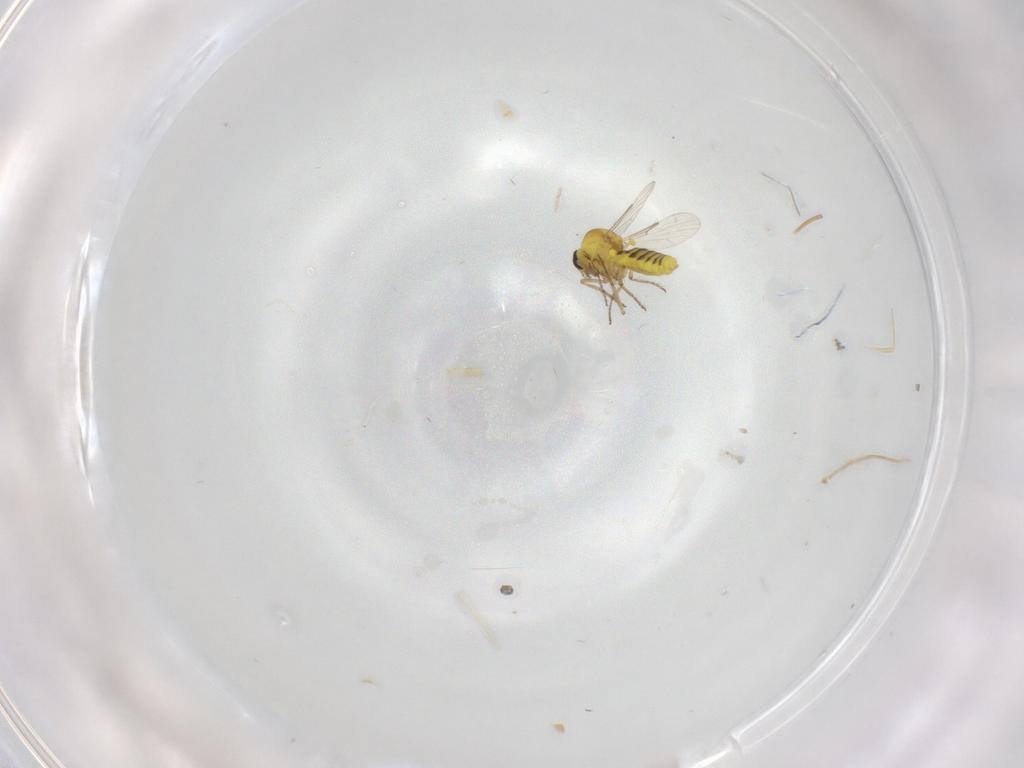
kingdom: Animalia
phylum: Arthropoda
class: Insecta
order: Diptera
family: Ceratopogonidae
